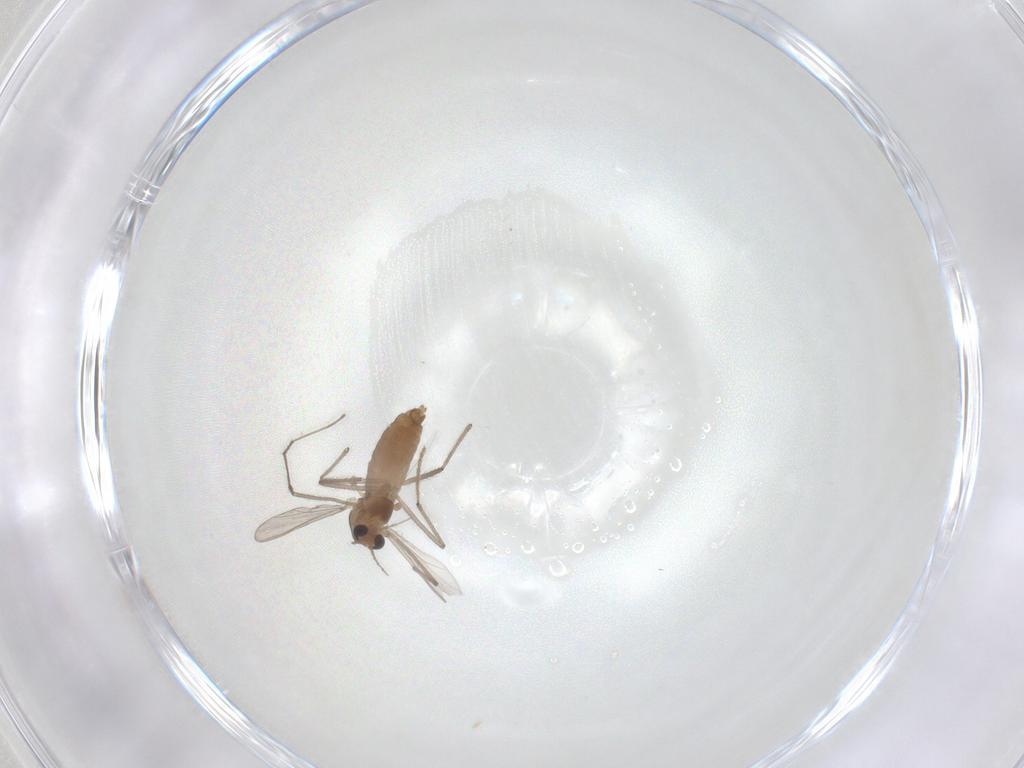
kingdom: Animalia
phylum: Arthropoda
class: Insecta
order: Diptera
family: Chironomidae
